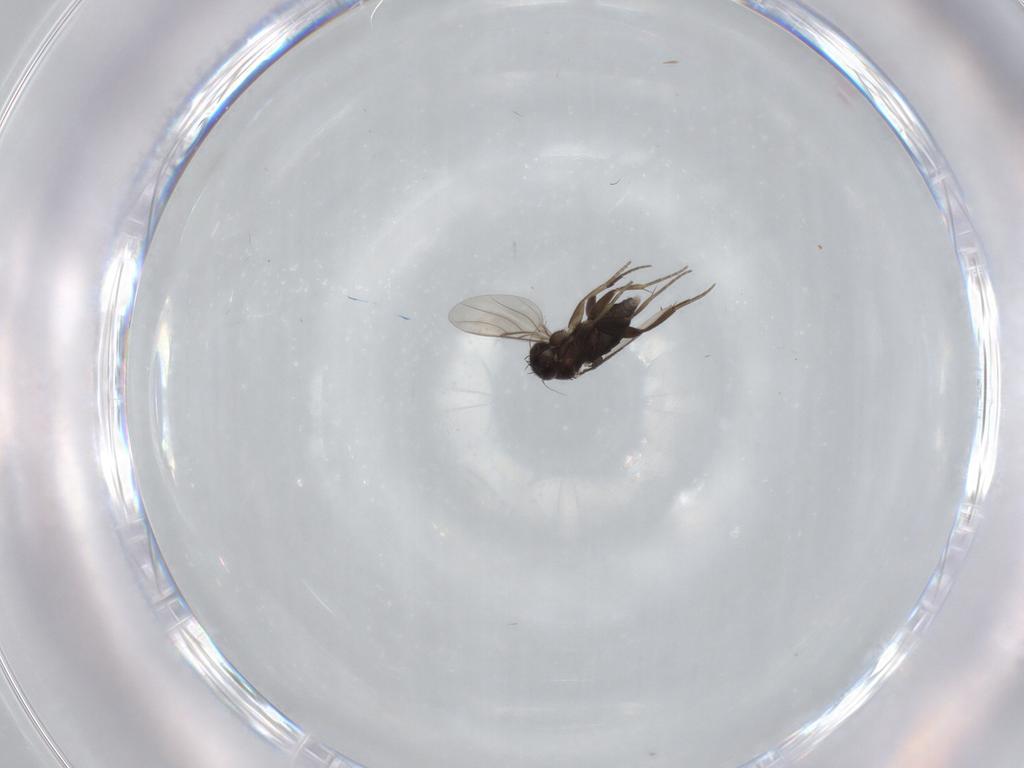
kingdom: Animalia
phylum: Arthropoda
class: Insecta
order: Diptera
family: Phoridae
